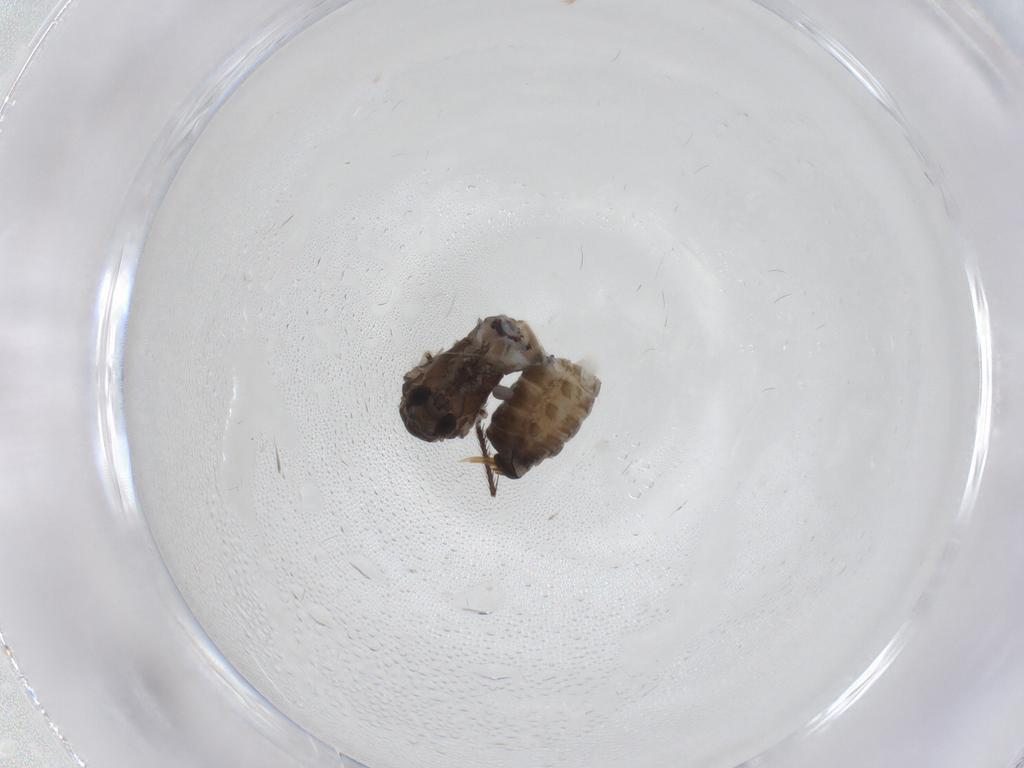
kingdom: Animalia
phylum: Arthropoda
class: Insecta
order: Diptera
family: Psychodidae
